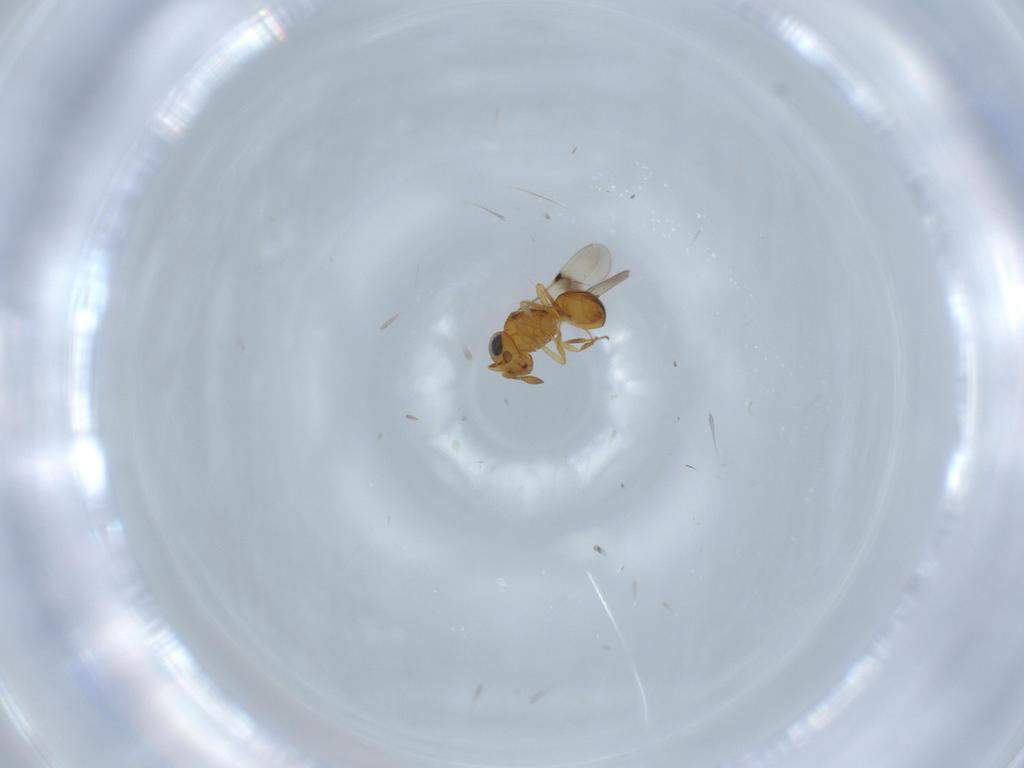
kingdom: Animalia
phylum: Arthropoda
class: Insecta
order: Hymenoptera
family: Scelionidae
